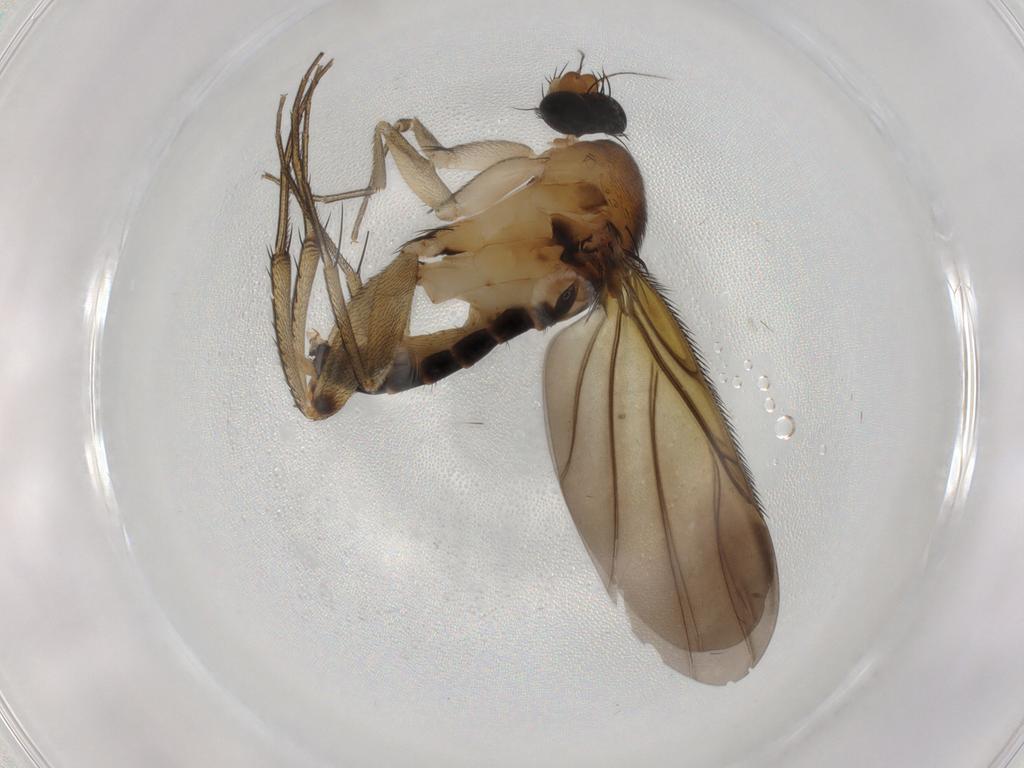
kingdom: Animalia
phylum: Arthropoda
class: Insecta
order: Diptera
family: Phoridae
